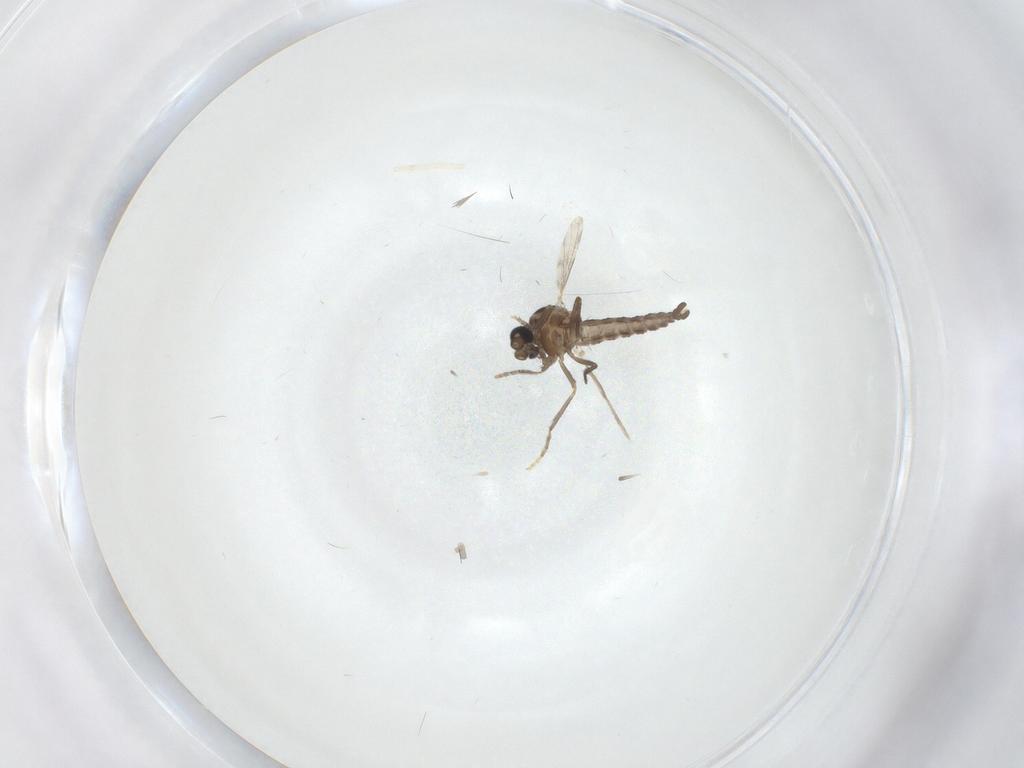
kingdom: Animalia
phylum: Arthropoda
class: Insecta
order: Diptera
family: Ceratopogonidae
